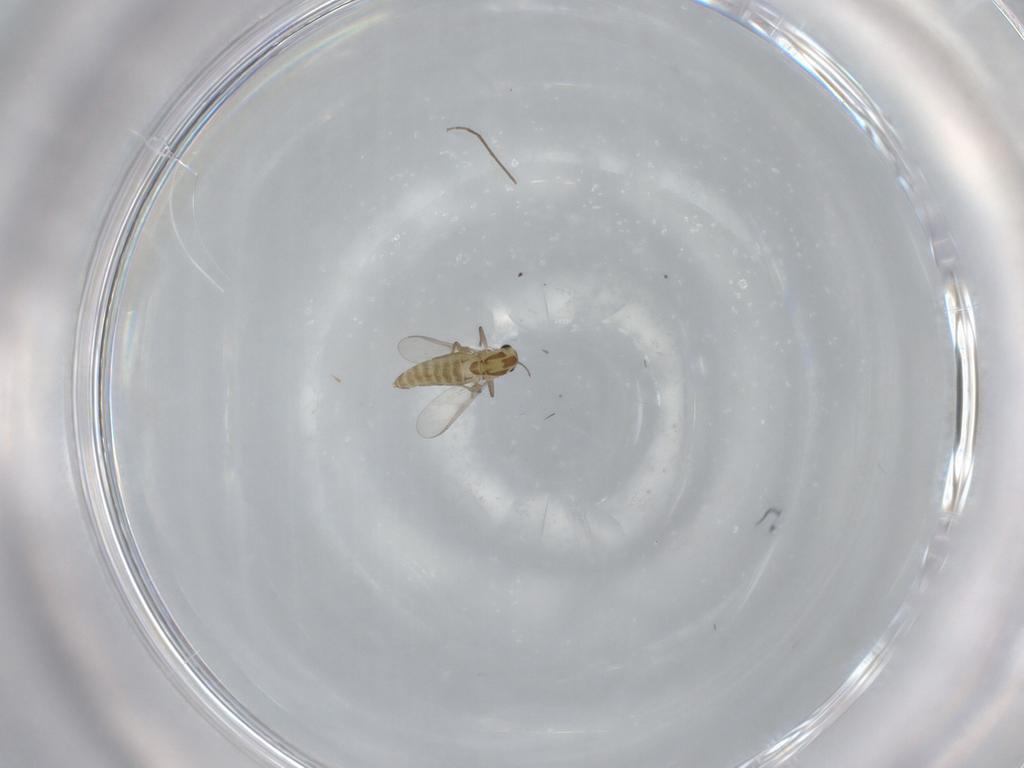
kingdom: Animalia
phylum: Arthropoda
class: Insecta
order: Diptera
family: Chironomidae
